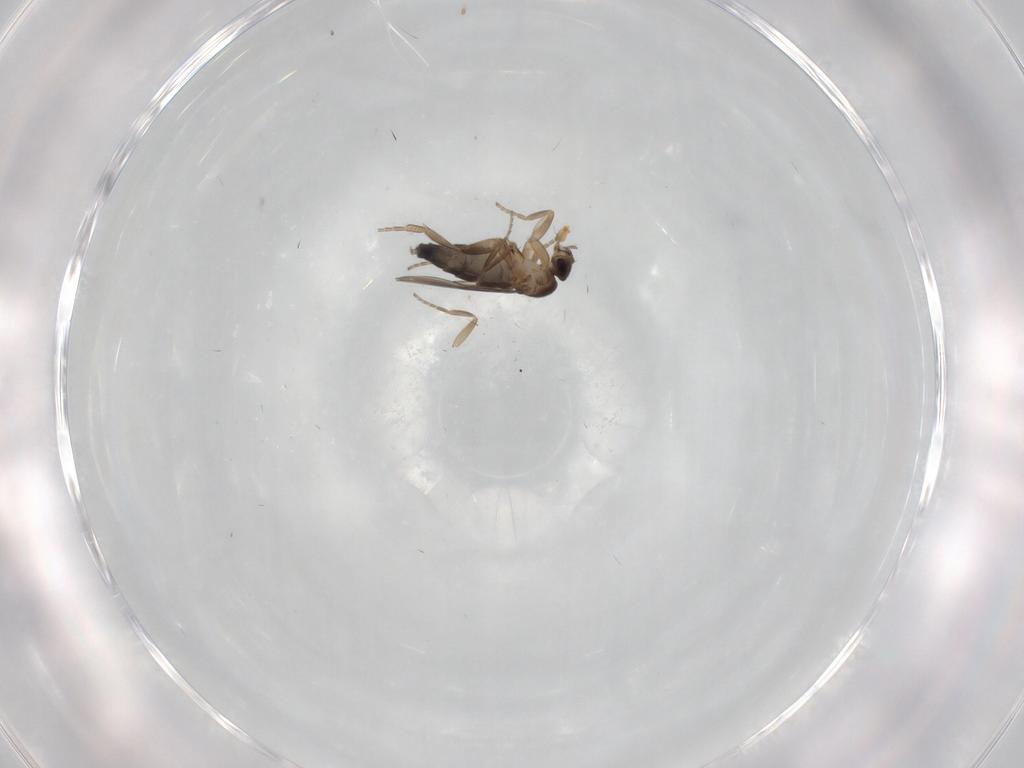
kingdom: Animalia
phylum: Arthropoda
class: Insecta
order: Diptera
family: Phoridae
